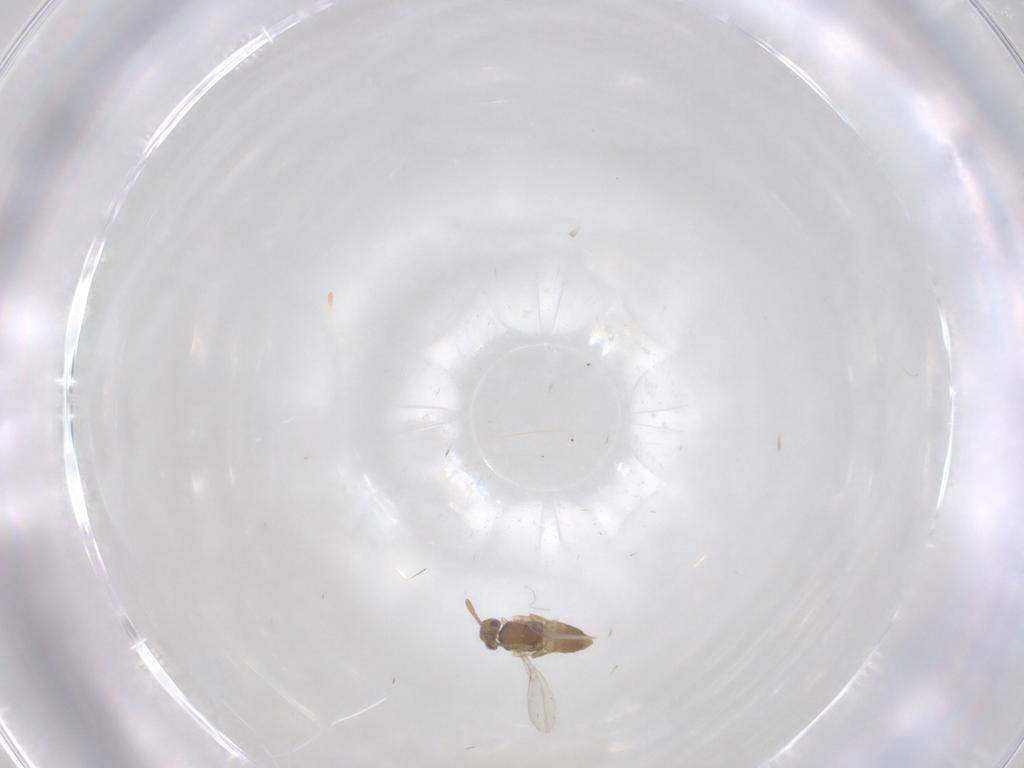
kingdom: Animalia
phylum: Arthropoda
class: Insecta
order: Hymenoptera
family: Encyrtidae
